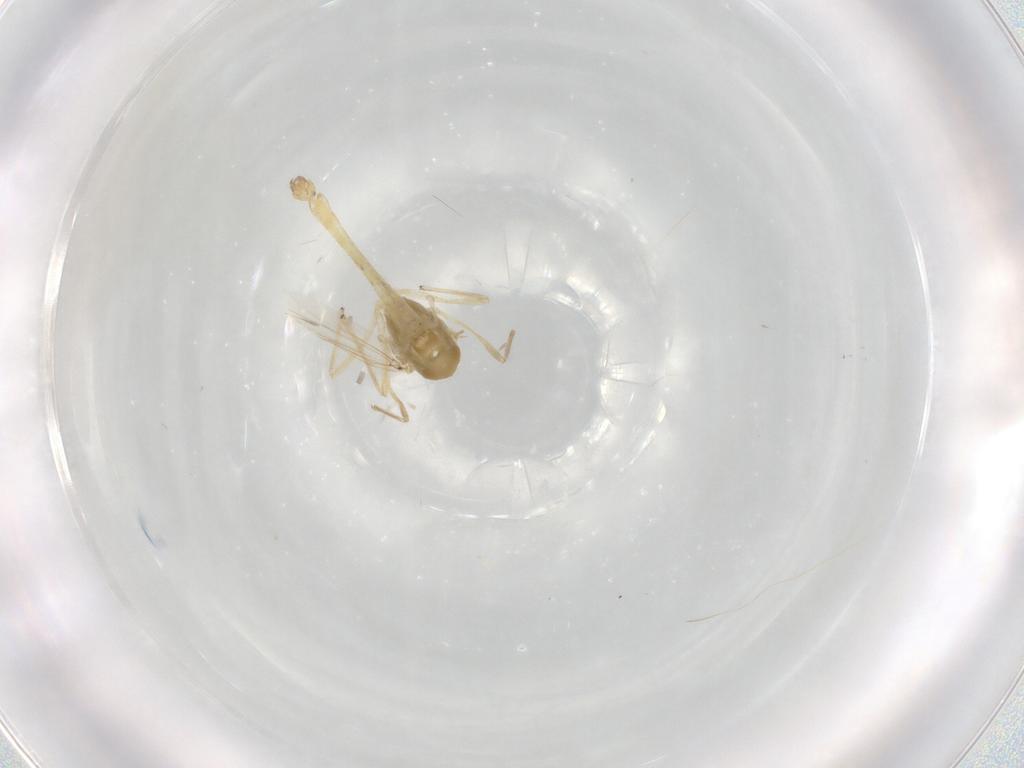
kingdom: Animalia
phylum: Arthropoda
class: Insecta
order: Diptera
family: Chironomidae
